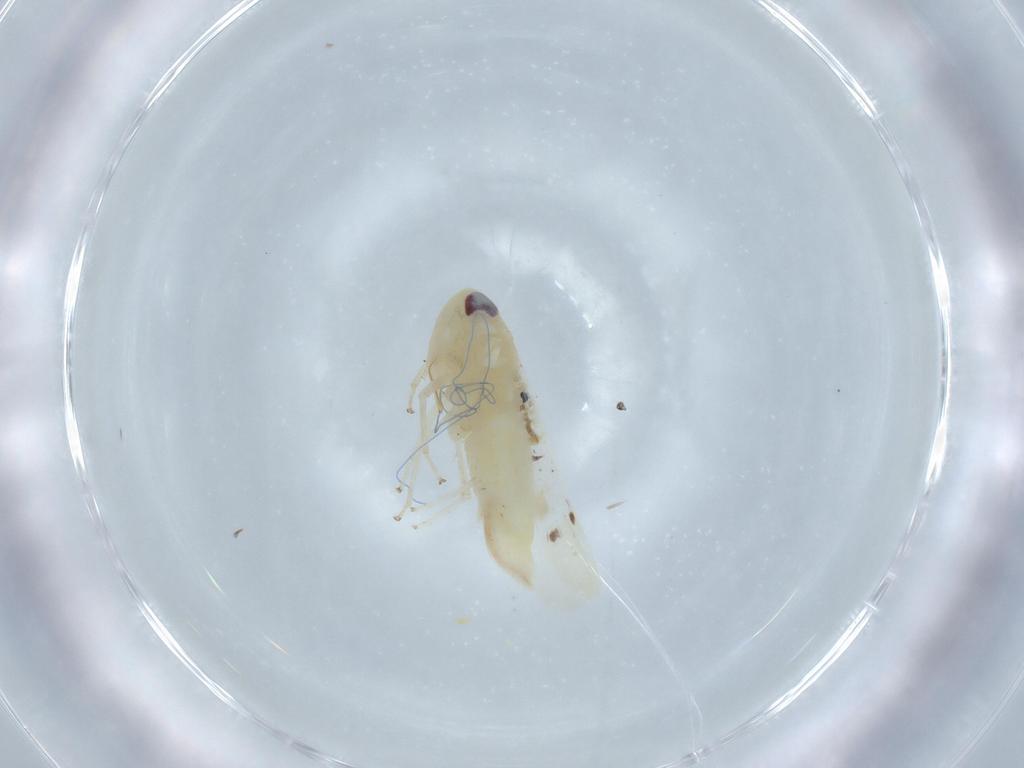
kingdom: Animalia
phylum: Arthropoda
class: Insecta
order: Hemiptera
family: Cicadellidae
